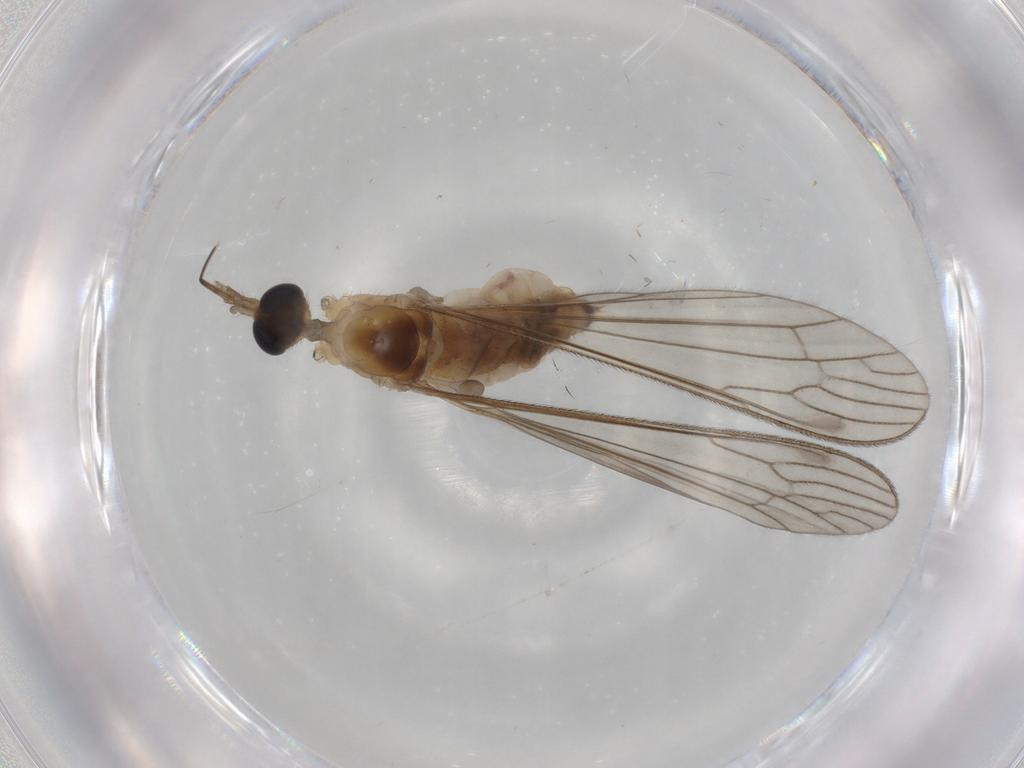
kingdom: Animalia
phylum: Arthropoda
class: Insecta
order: Diptera
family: Limoniidae
